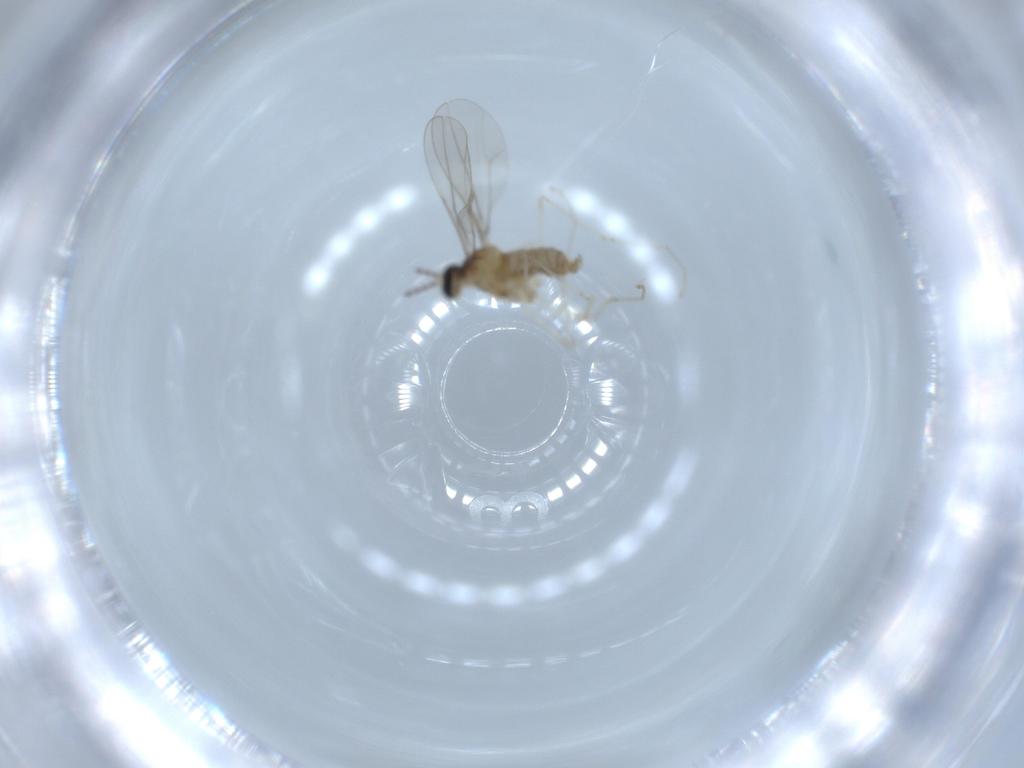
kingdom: Animalia
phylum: Arthropoda
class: Insecta
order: Diptera
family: Cecidomyiidae
